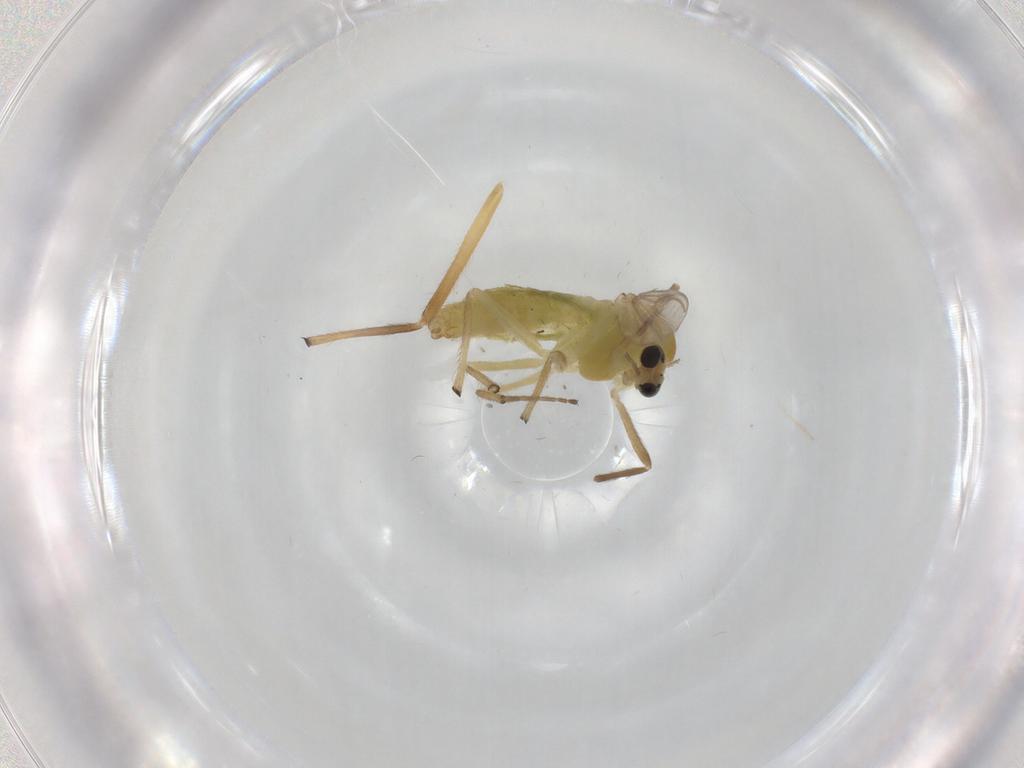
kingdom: Animalia
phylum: Arthropoda
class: Insecta
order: Diptera
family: Chironomidae
